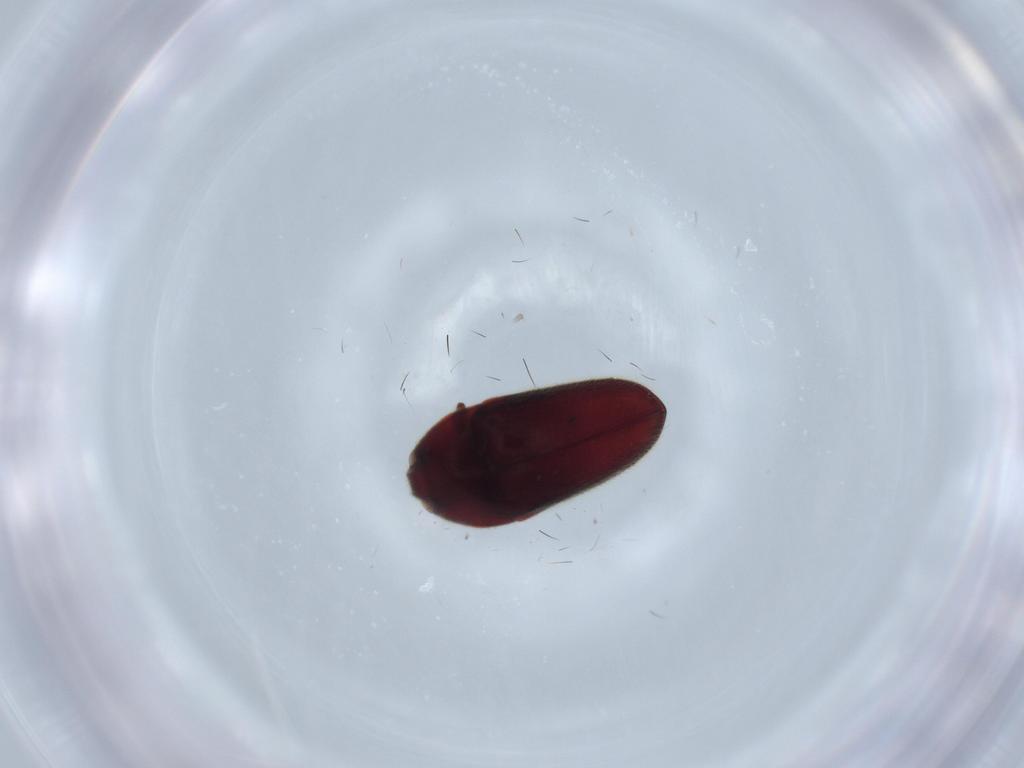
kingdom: Animalia
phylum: Arthropoda
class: Insecta
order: Coleoptera
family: Throscidae
